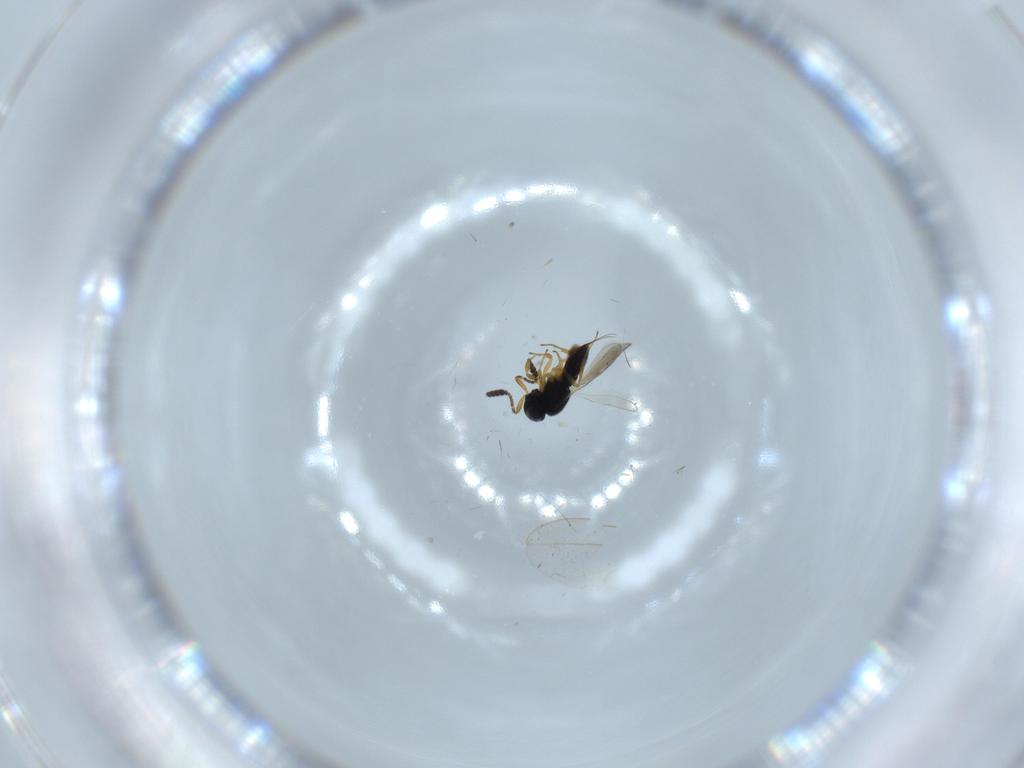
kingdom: Animalia
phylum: Arthropoda
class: Insecta
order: Hymenoptera
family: Scelionidae
